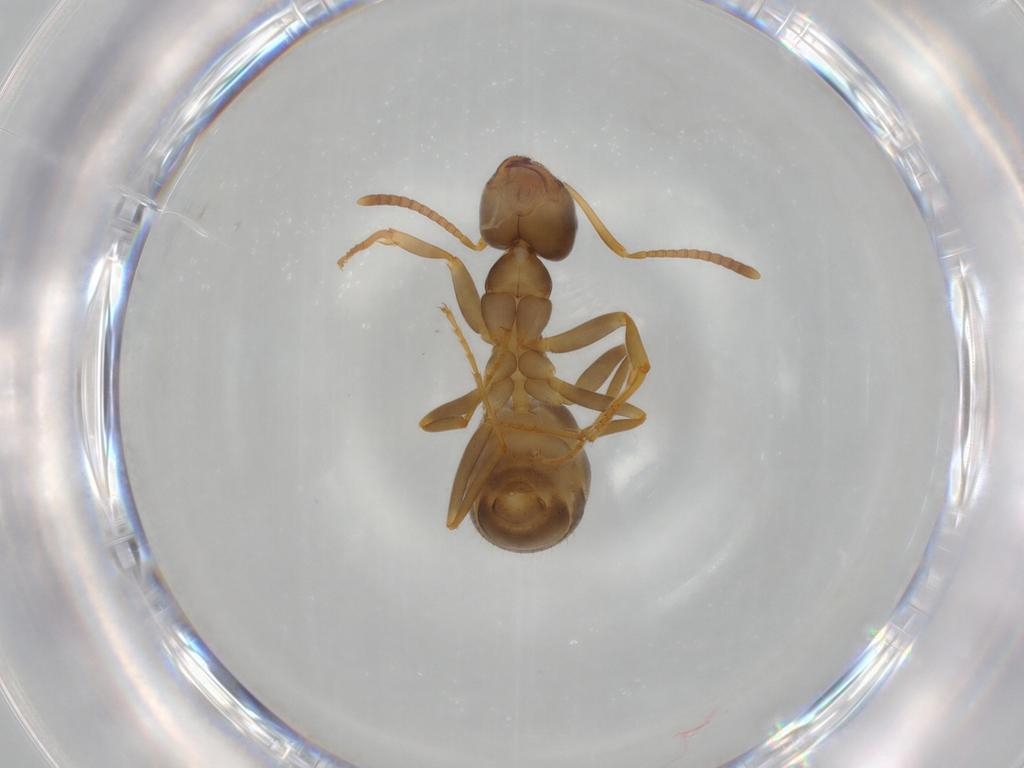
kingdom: Animalia
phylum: Arthropoda
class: Insecta
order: Hymenoptera
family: Formicidae
